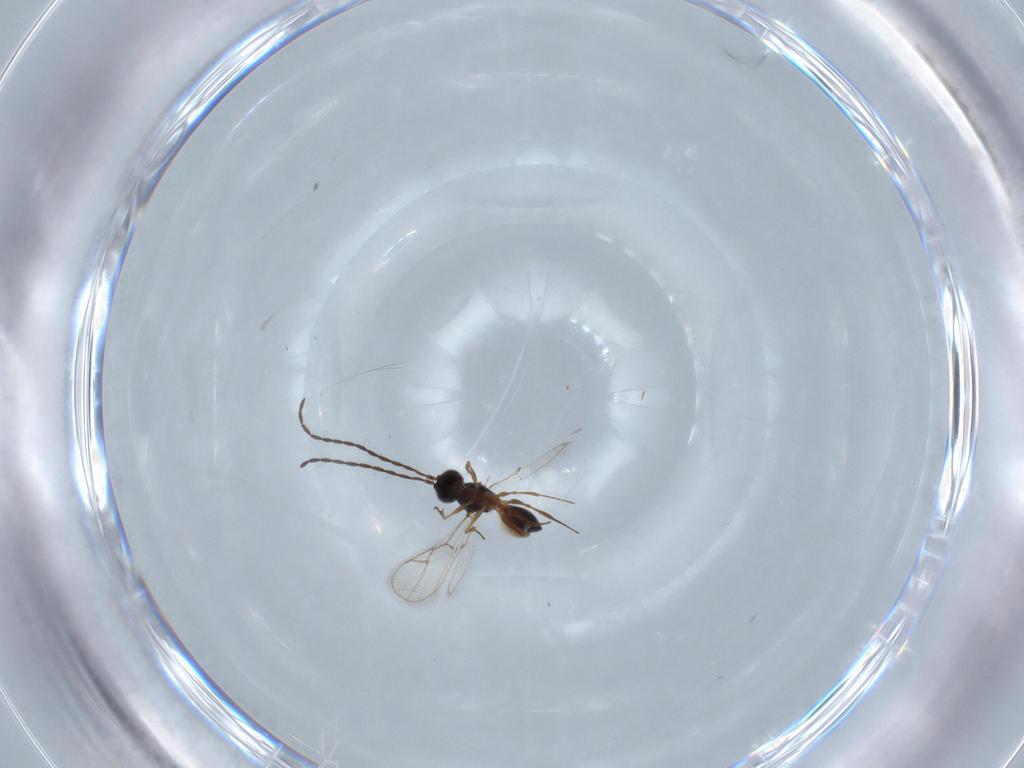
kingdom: Animalia
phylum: Arthropoda
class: Insecta
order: Hymenoptera
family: Figitidae
